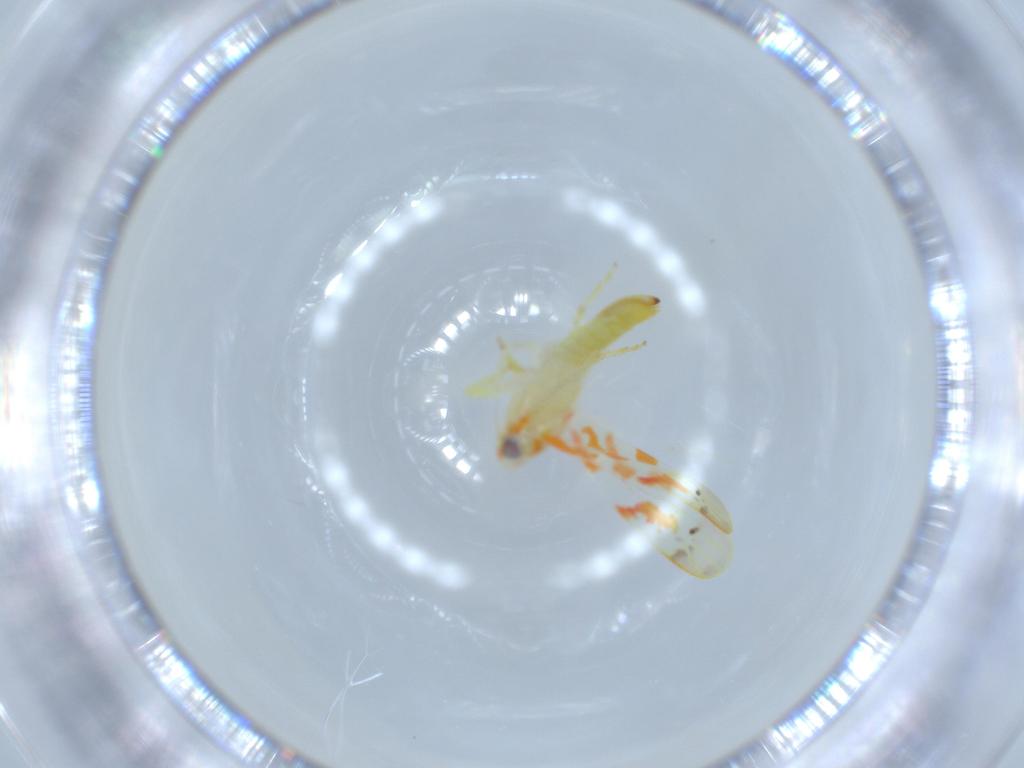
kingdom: Animalia
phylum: Arthropoda
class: Insecta
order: Hemiptera
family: Cicadellidae
